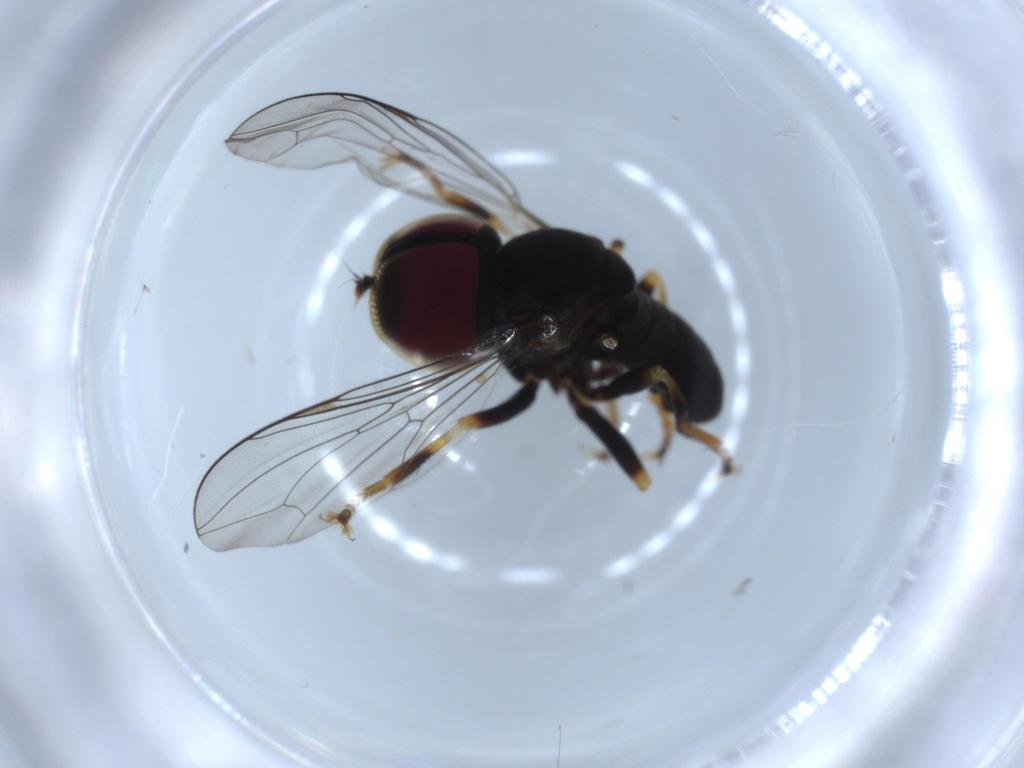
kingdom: Animalia
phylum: Arthropoda
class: Insecta
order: Diptera
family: Pipunculidae
